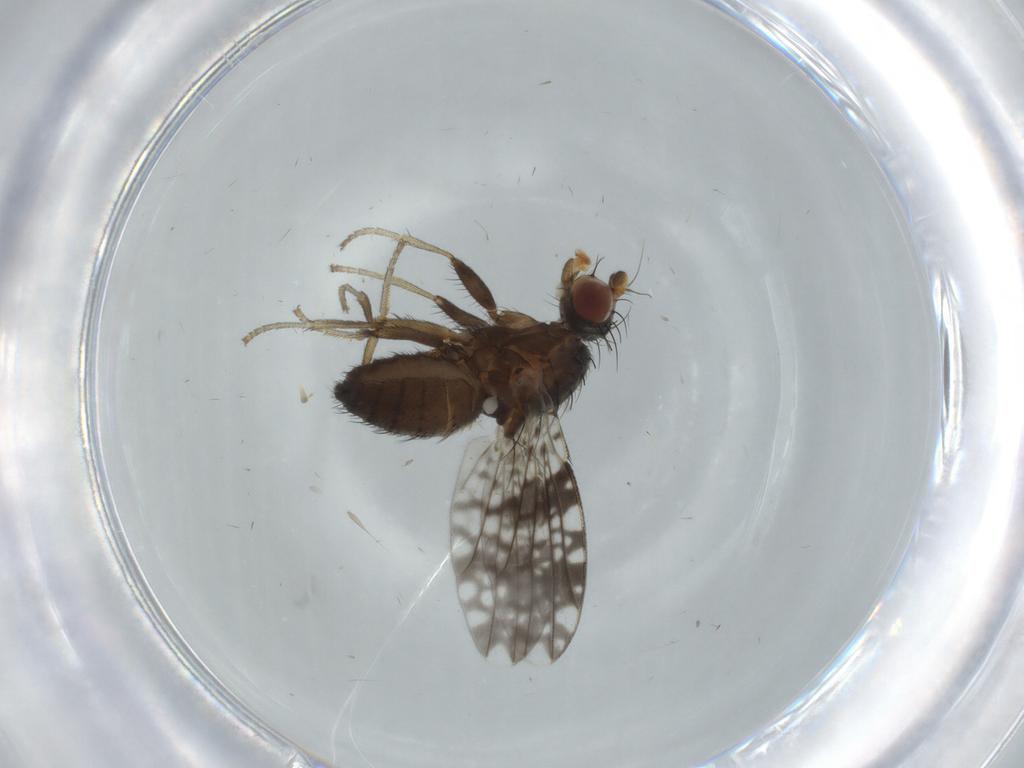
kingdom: Animalia
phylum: Arthropoda
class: Insecta
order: Diptera
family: Tephritidae
